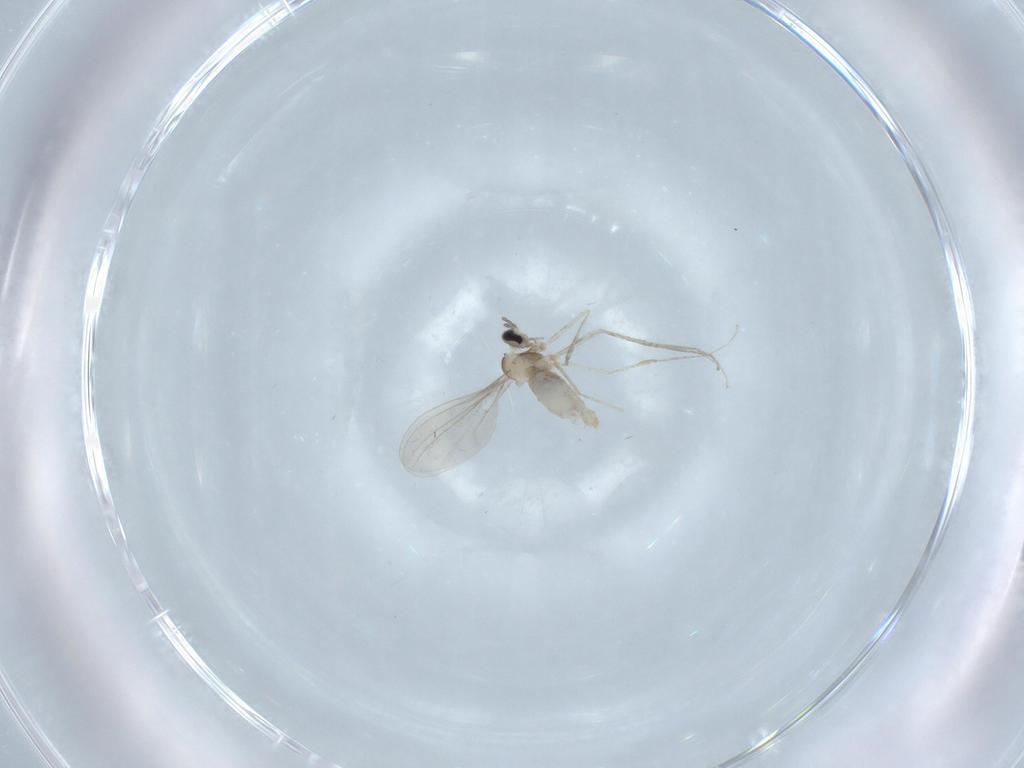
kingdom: Animalia
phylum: Arthropoda
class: Insecta
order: Diptera
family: Cecidomyiidae
